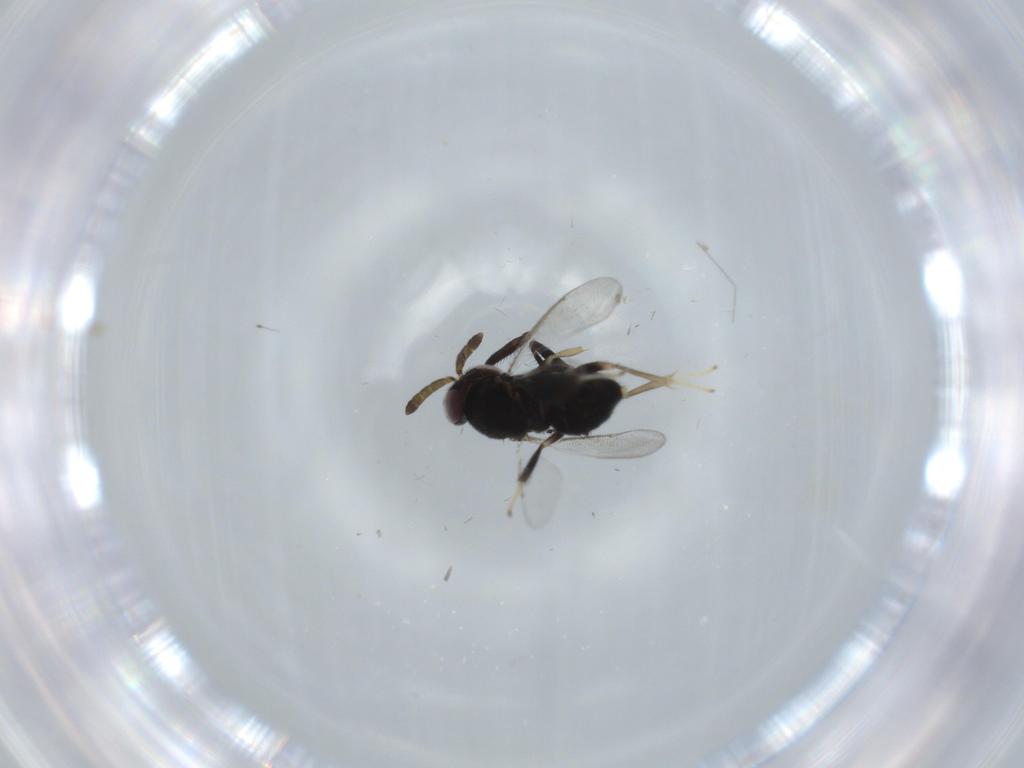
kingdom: Animalia
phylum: Arthropoda
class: Insecta
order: Hymenoptera
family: Aphelinidae
